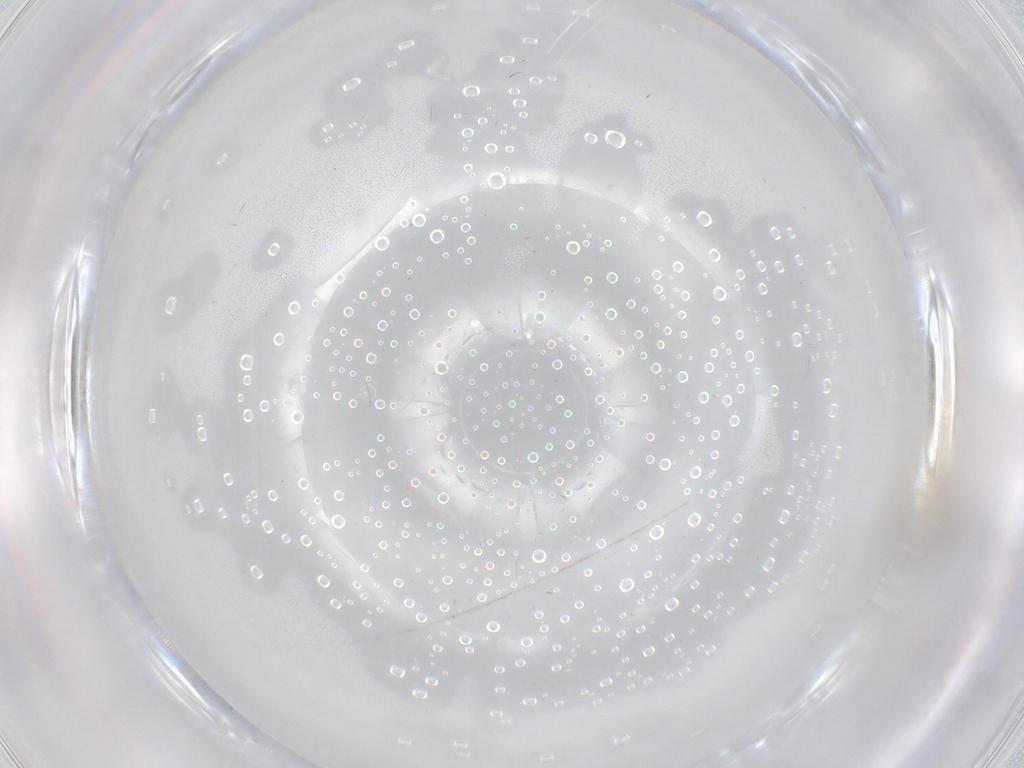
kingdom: Animalia
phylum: Arthropoda
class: Insecta
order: Hemiptera
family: Membracidae
